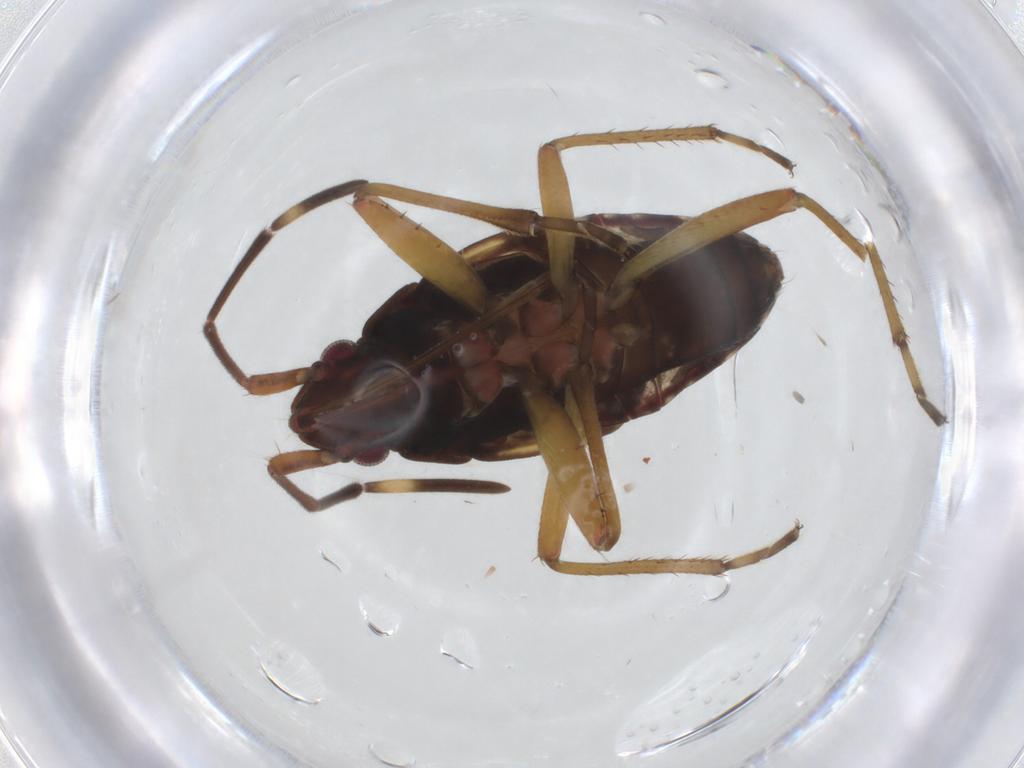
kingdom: Animalia
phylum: Arthropoda
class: Insecta
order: Hemiptera
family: Rhyparochromidae
